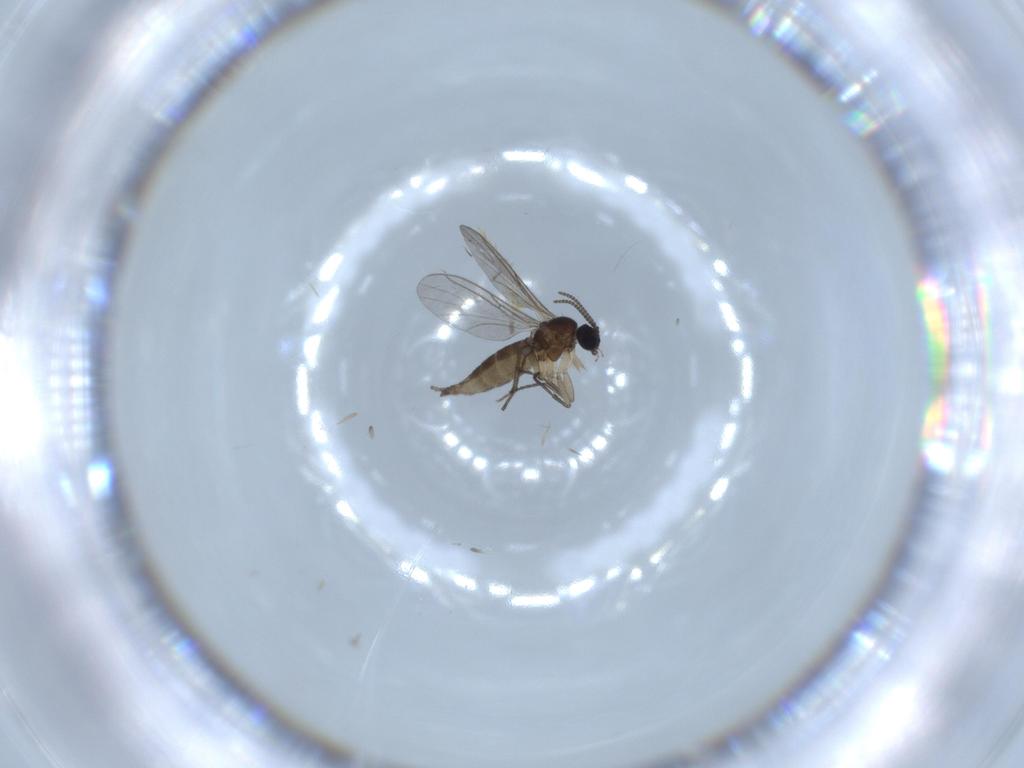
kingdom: Animalia
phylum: Arthropoda
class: Insecta
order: Diptera
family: Sciaridae
